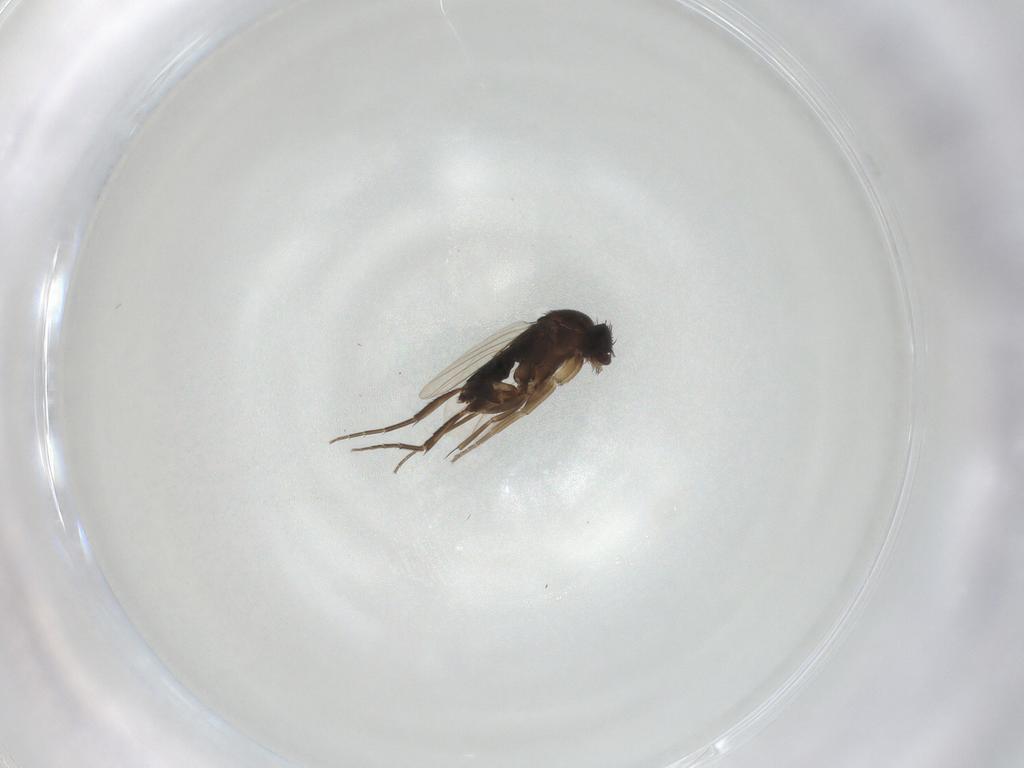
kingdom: Animalia
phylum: Arthropoda
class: Insecta
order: Diptera
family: Sciaridae
